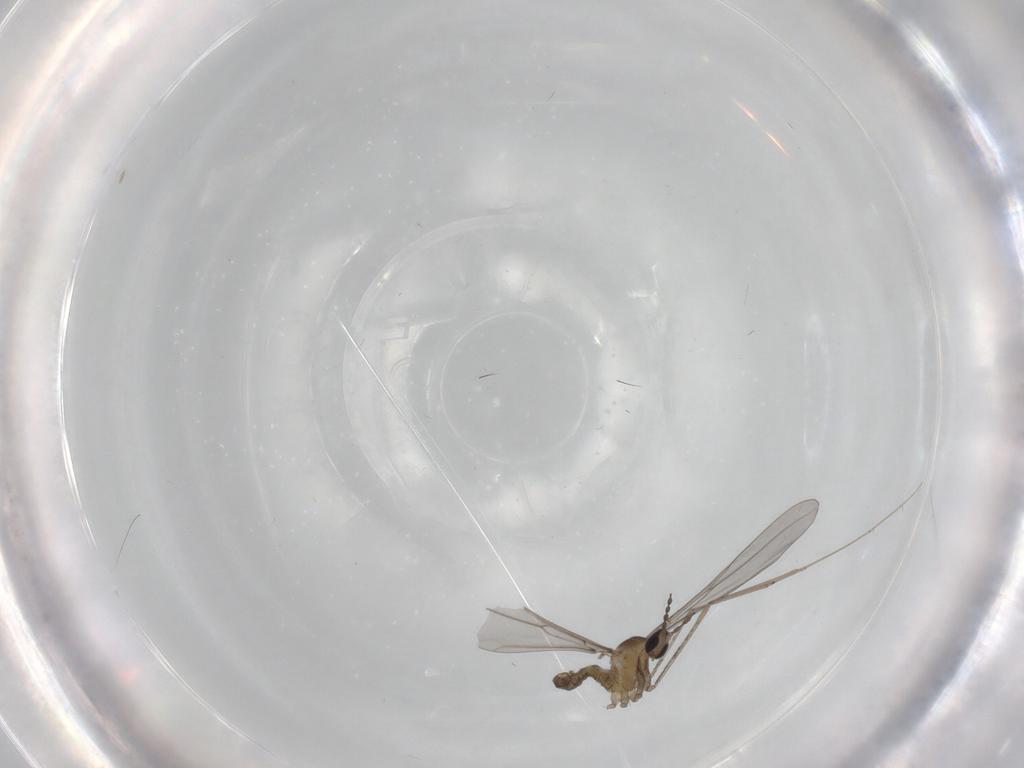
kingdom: Animalia
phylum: Arthropoda
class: Insecta
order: Diptera
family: Cecidomyiidae
